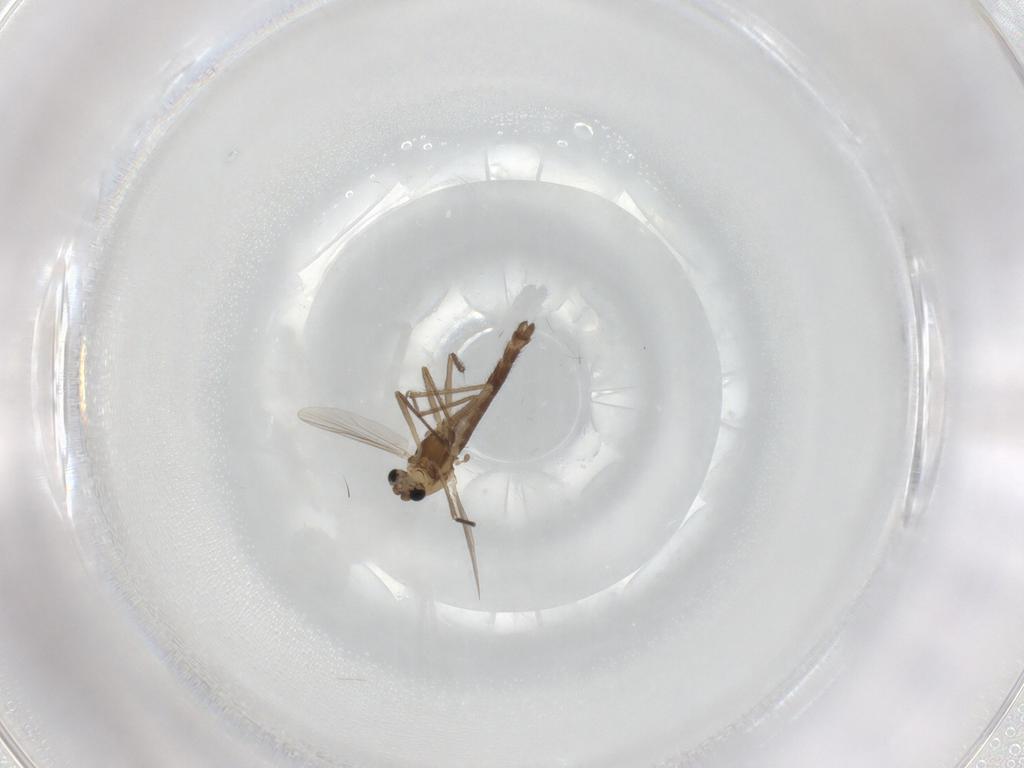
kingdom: Animalia
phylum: Arthropoda
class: Insecta
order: Diptera
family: Chironomidae
